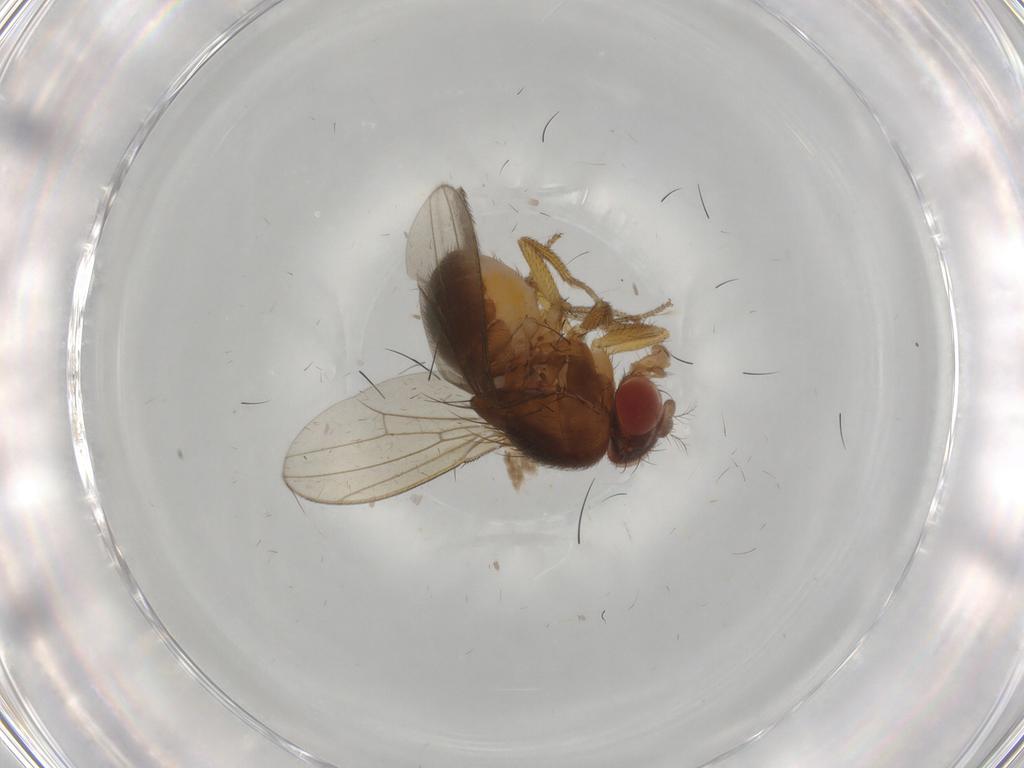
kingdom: Animalia
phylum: Arthropoda
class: Insecta
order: Diptera
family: Drosophilidae
